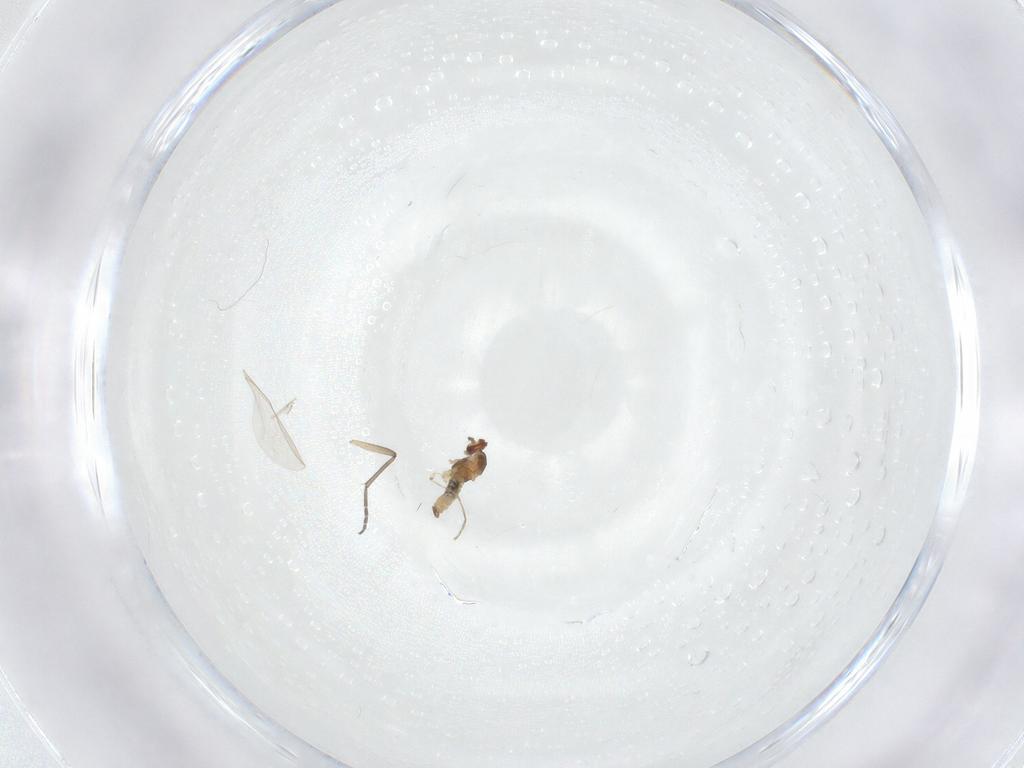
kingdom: Animalia
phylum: Arthropoda
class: Insecta
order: Diptera
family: Sciaridae
